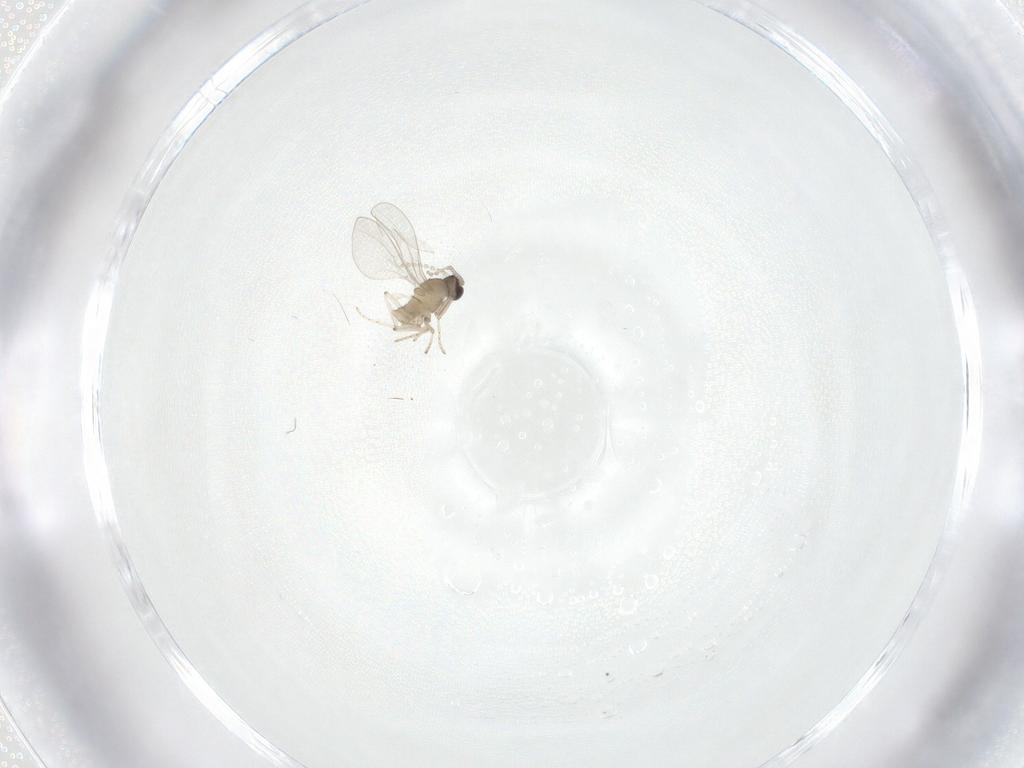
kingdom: Animalia
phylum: Arthropoda
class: Insecta
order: Diptera
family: Cecidomyiidae
